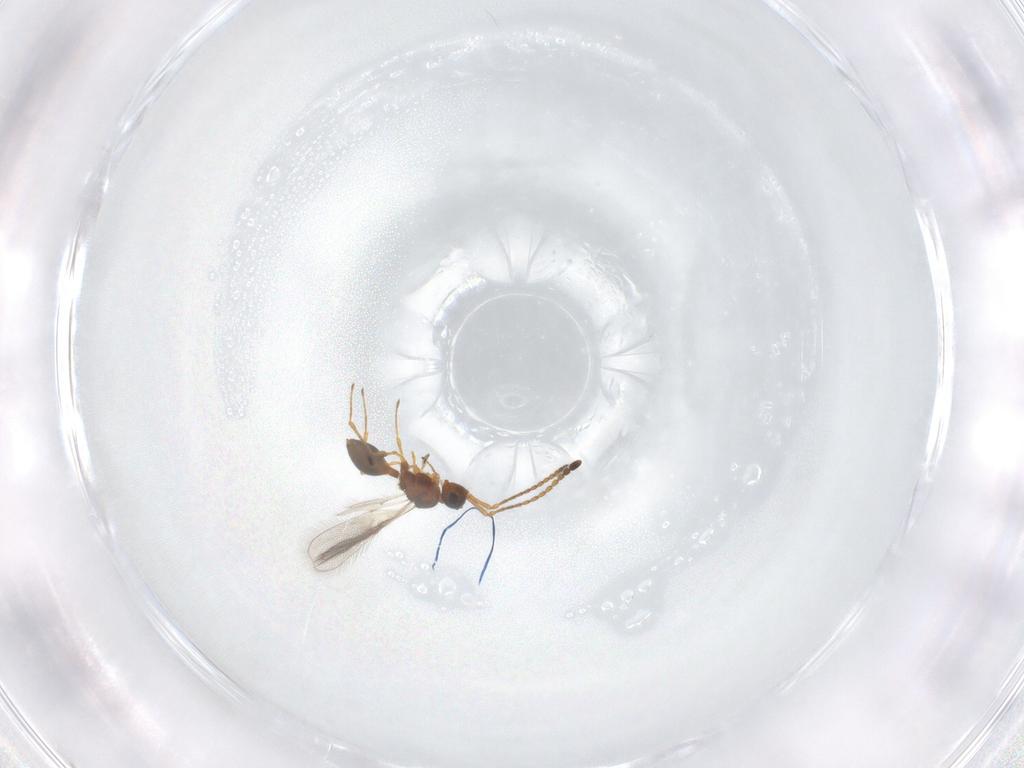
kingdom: Animalia
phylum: Arthropoda
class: Insecta
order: Hymenoptera
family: Diapriidae
